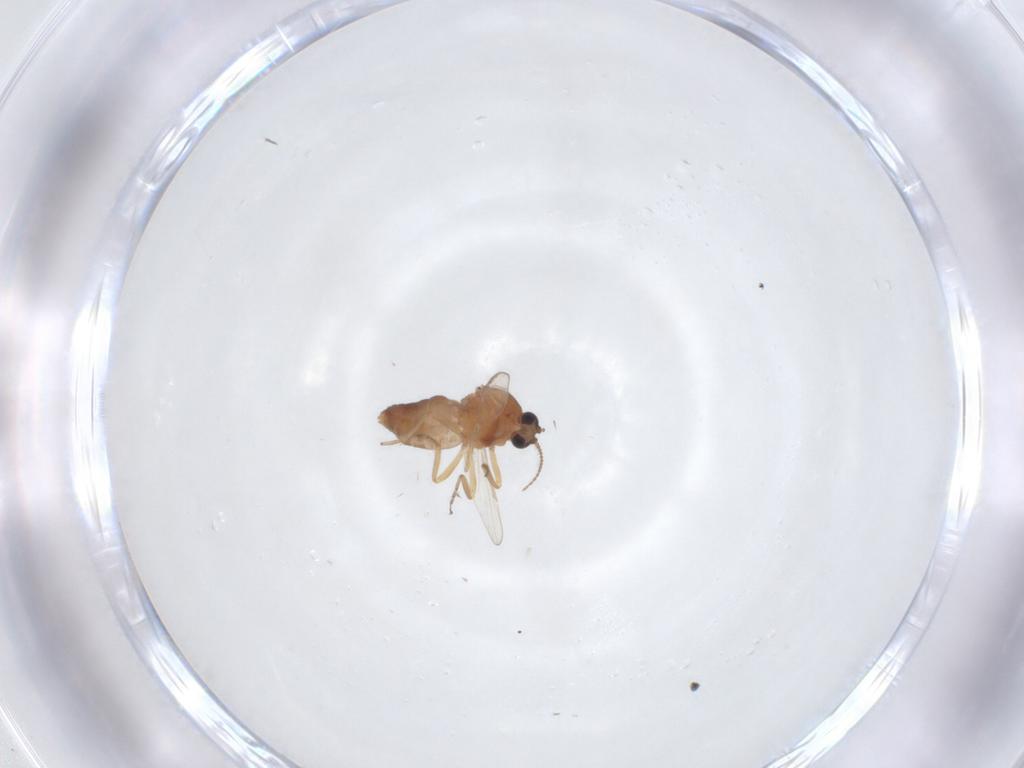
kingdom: Animalia
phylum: Arthropoda
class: Insecta
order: Diptera
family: Ceratopogonidae
